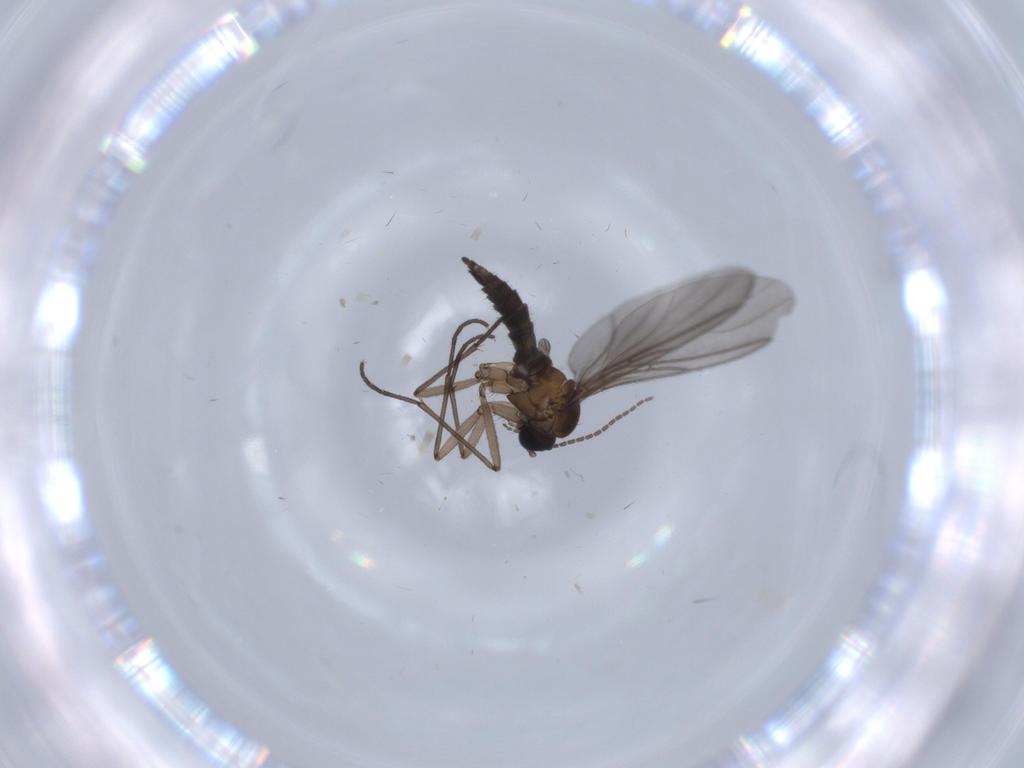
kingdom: Animalia
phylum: Arthropoda
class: Insecta
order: Diptera
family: Sciaridae
